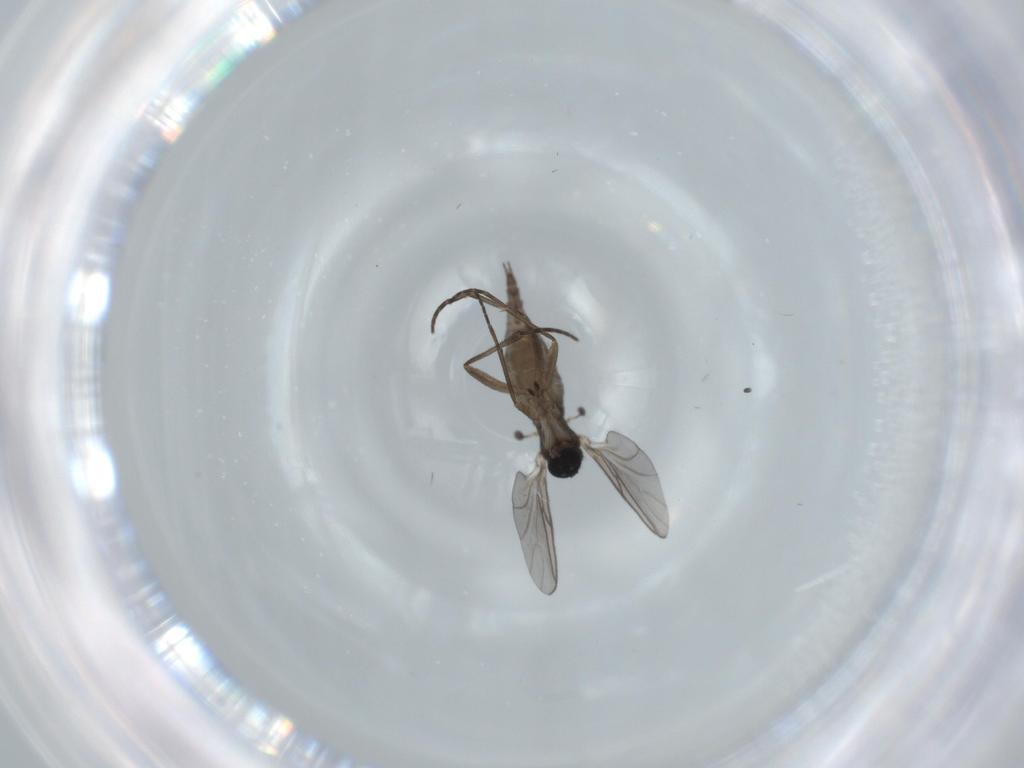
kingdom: Animalia
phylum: Arthropoda
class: Insecta
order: Diptera
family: Sciaridae
